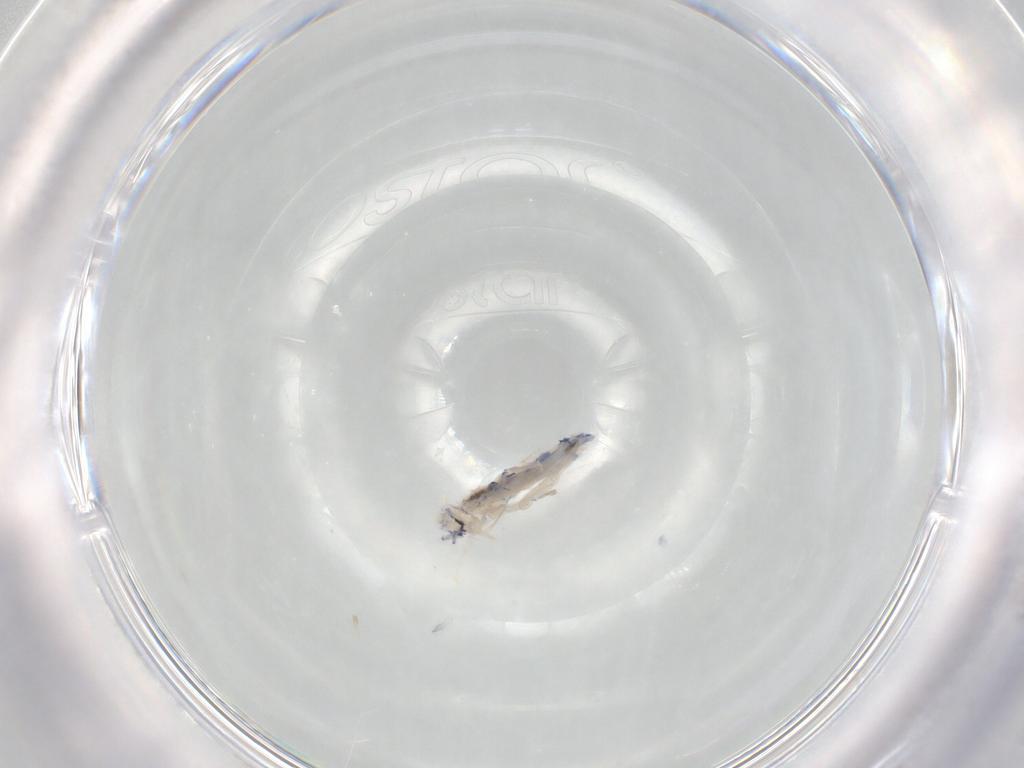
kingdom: Animalia
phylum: Arthropoda
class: Collembola
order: Entomobryomorpha
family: Entomobryidae
